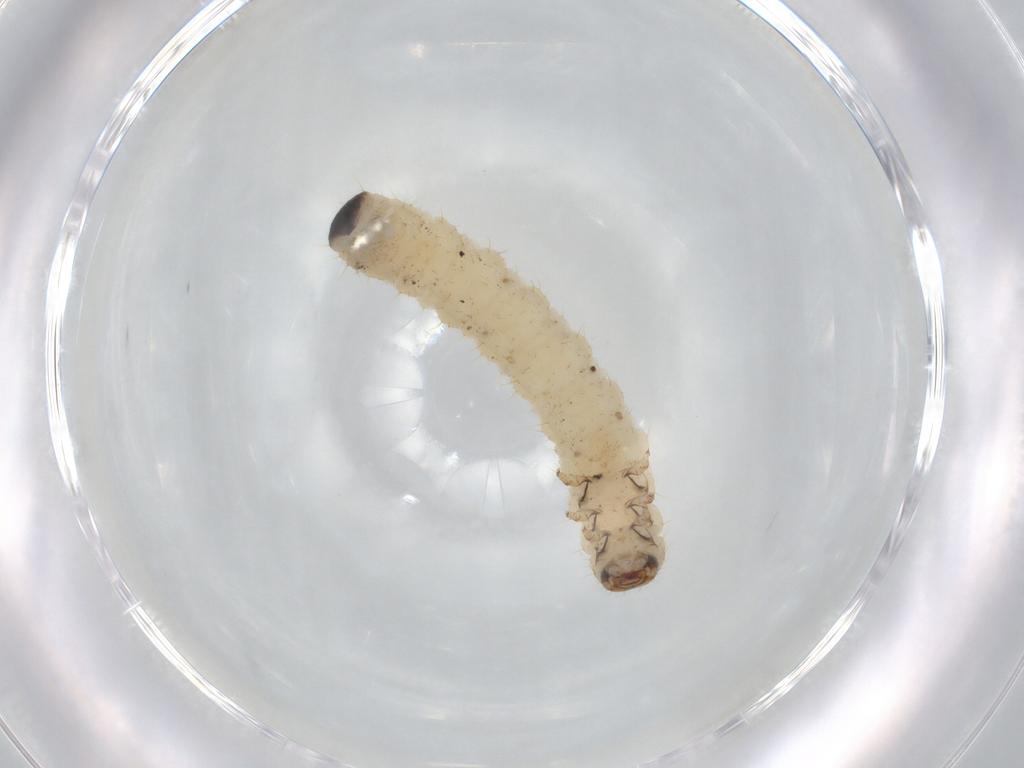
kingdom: Animalia
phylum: Arthropoda
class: Insecta
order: Coleoptera
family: Chrysomelidae
